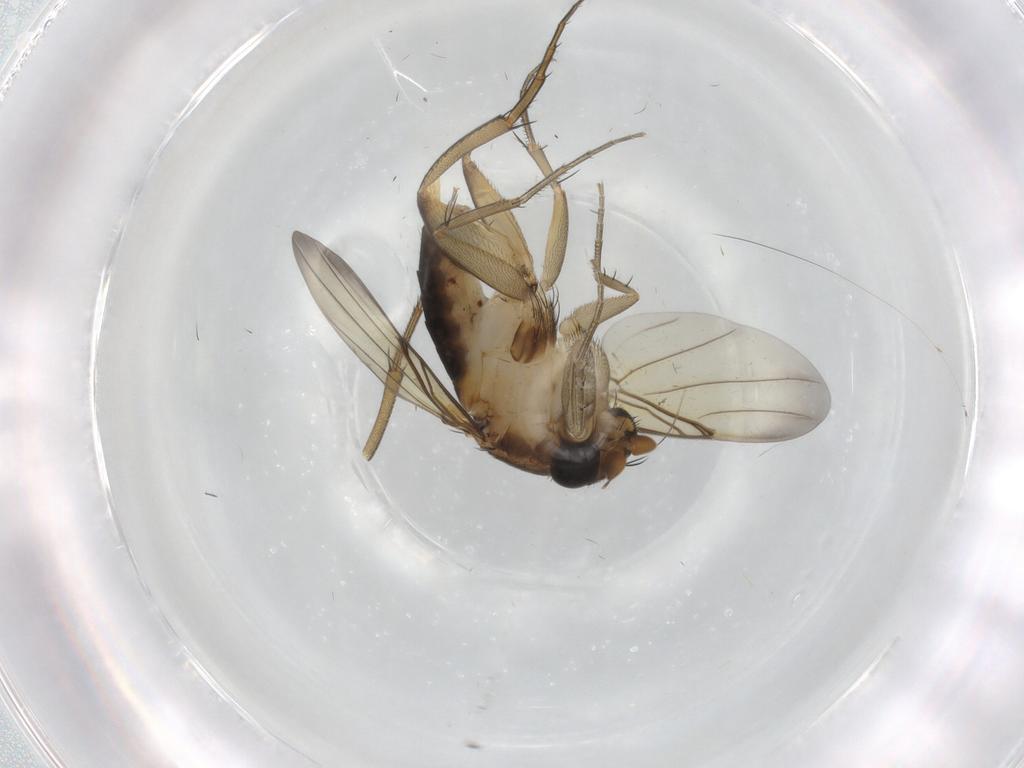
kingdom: Animalia
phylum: Arthropoda
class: Insecta
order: Diptera
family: Phoridae
